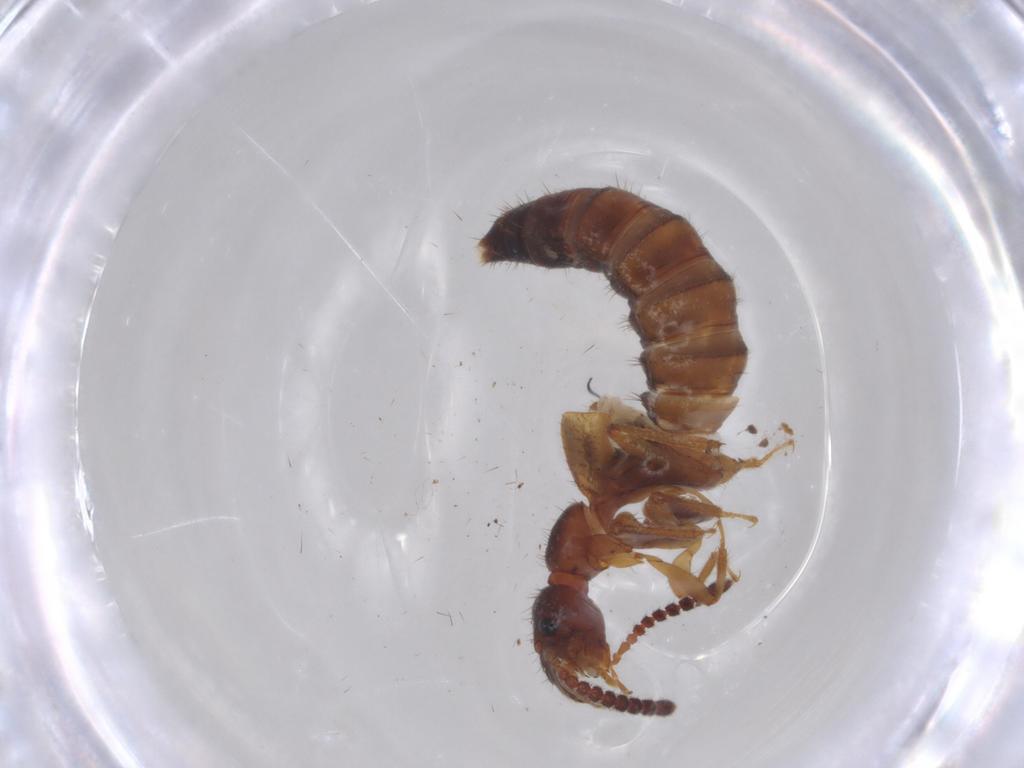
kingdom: Animalia
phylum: Arthropoda
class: Insecta
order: Coleoptera
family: Staphylinidae
